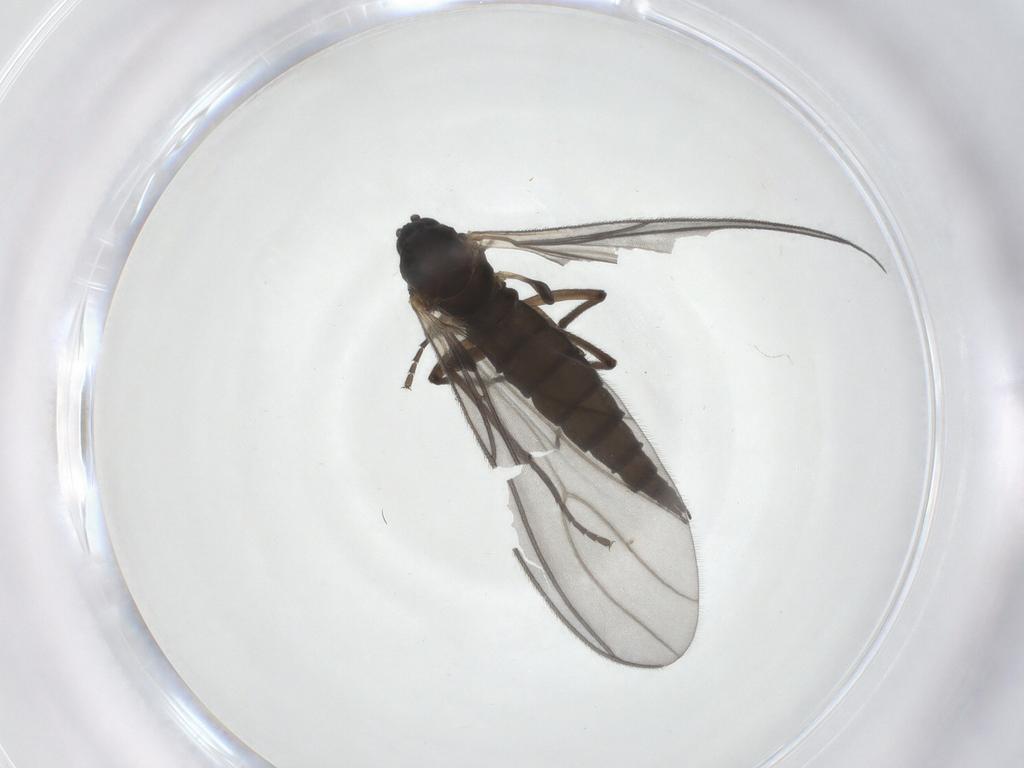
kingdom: Animalia
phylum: Arthropoda
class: Insecta
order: Diptera
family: Sciaridae
